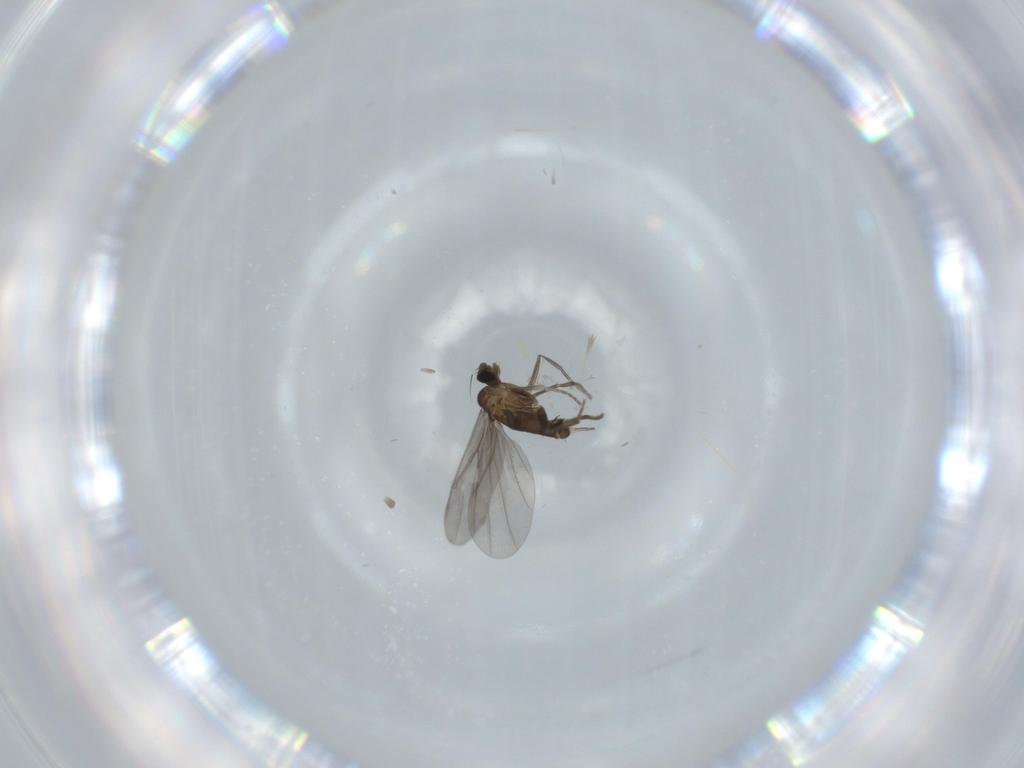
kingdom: Animalia
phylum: Arthropoda
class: Insecta
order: Diptera
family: Phoridae
